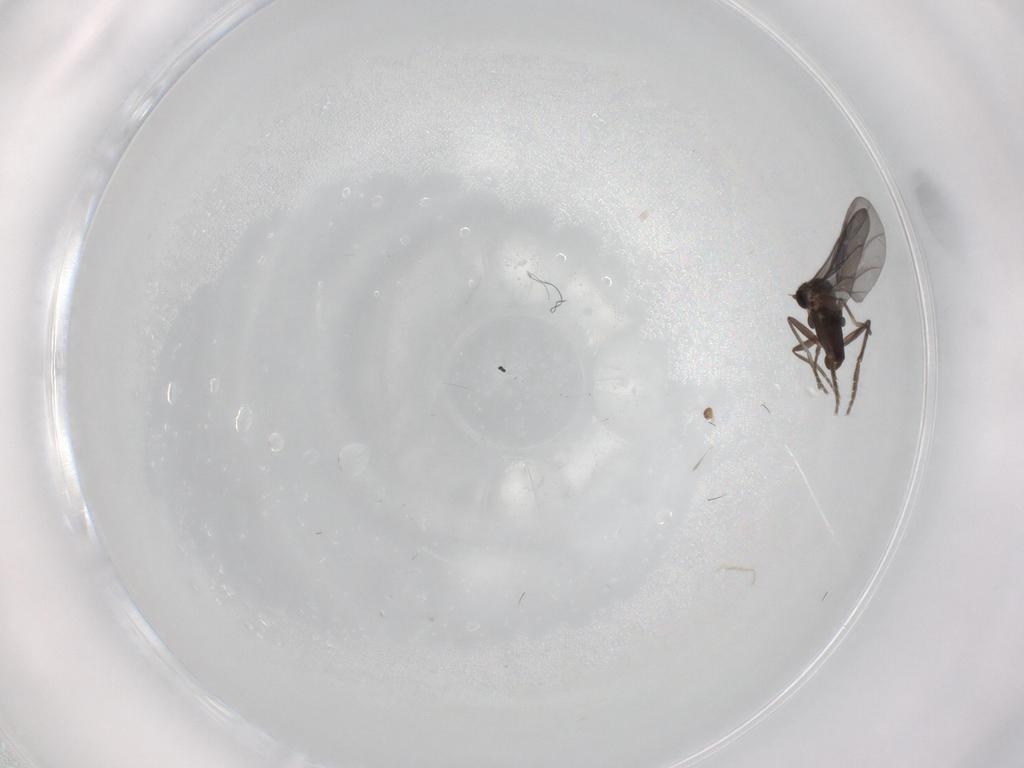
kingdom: Animalia
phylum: Arthropoda
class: Insecta
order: Diptera
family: Phoridae
